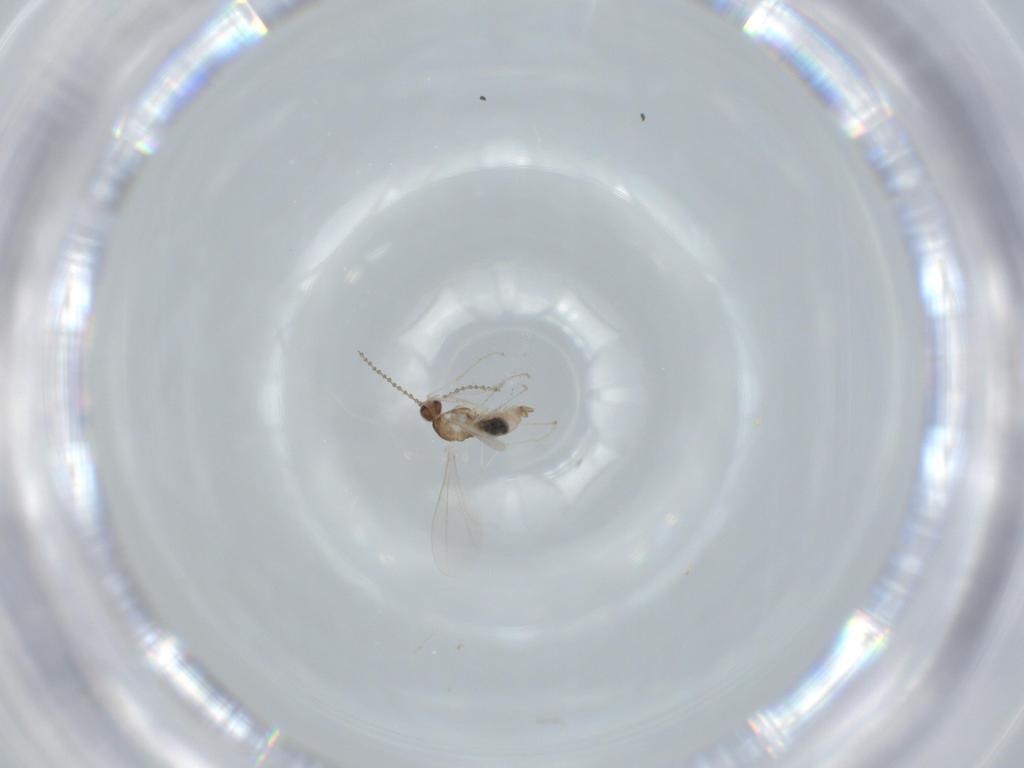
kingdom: Animalia
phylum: Arthropoda
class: Insecta
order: Diptera
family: Cecidomyiidae
